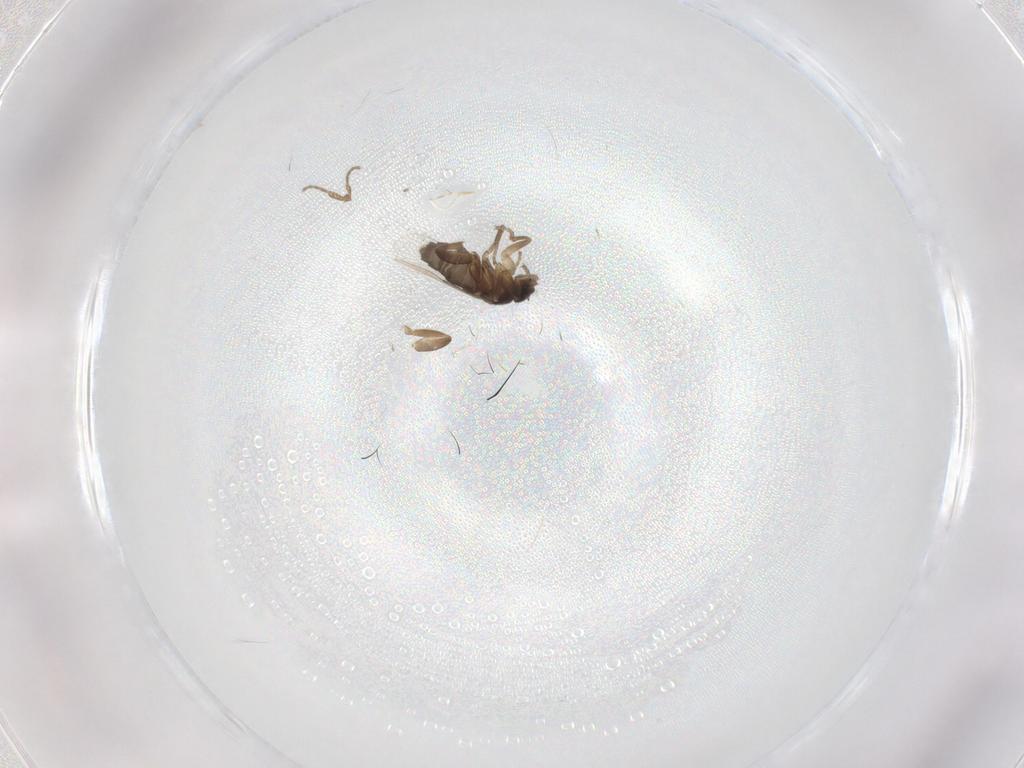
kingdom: Animalia
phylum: Arthropoda
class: Insecta
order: Diptera
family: Phoridae
